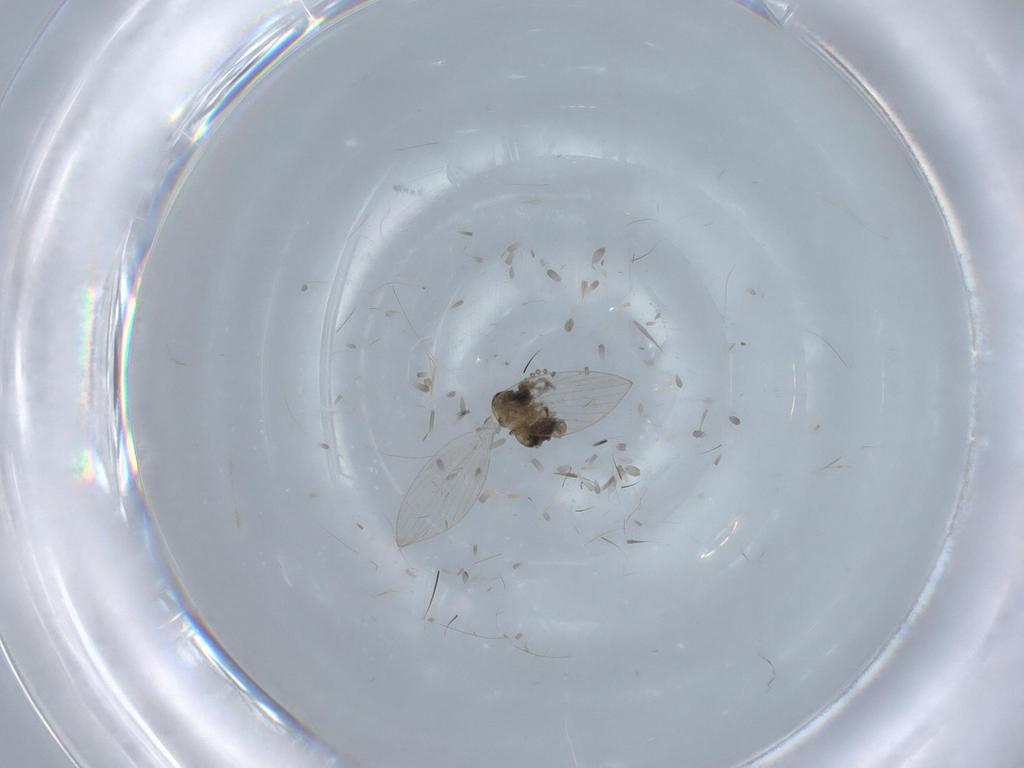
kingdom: Animalia
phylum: Arthropoda
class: Insecta
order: Diptera
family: Psychodidae
